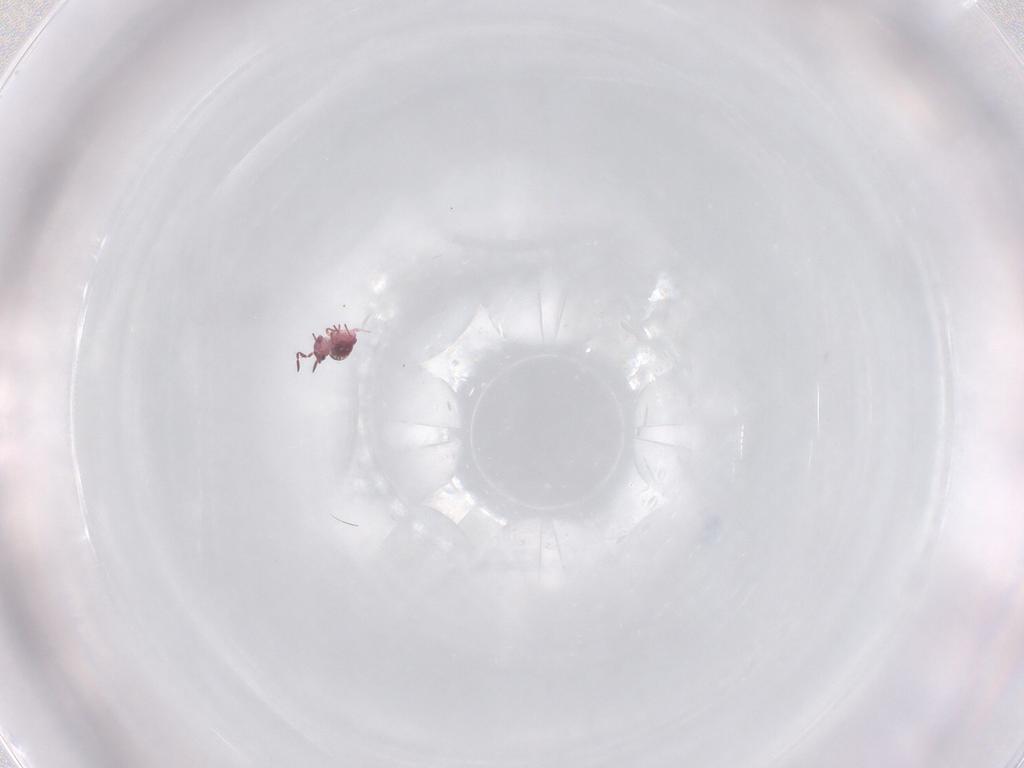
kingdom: Animalia
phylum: Arthropoda
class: Collembola
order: Symphypleona
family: Sminthurididae
